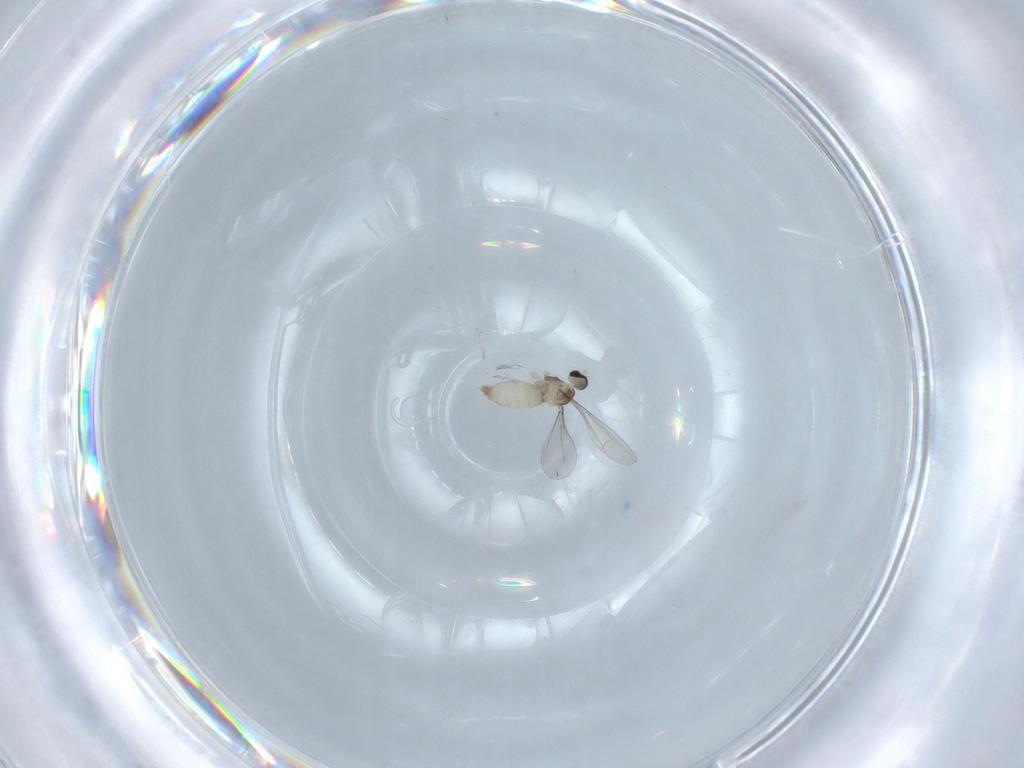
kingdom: Animalia
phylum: Arthropoda
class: Insecta
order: Diptera
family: Cecidomyiidae
